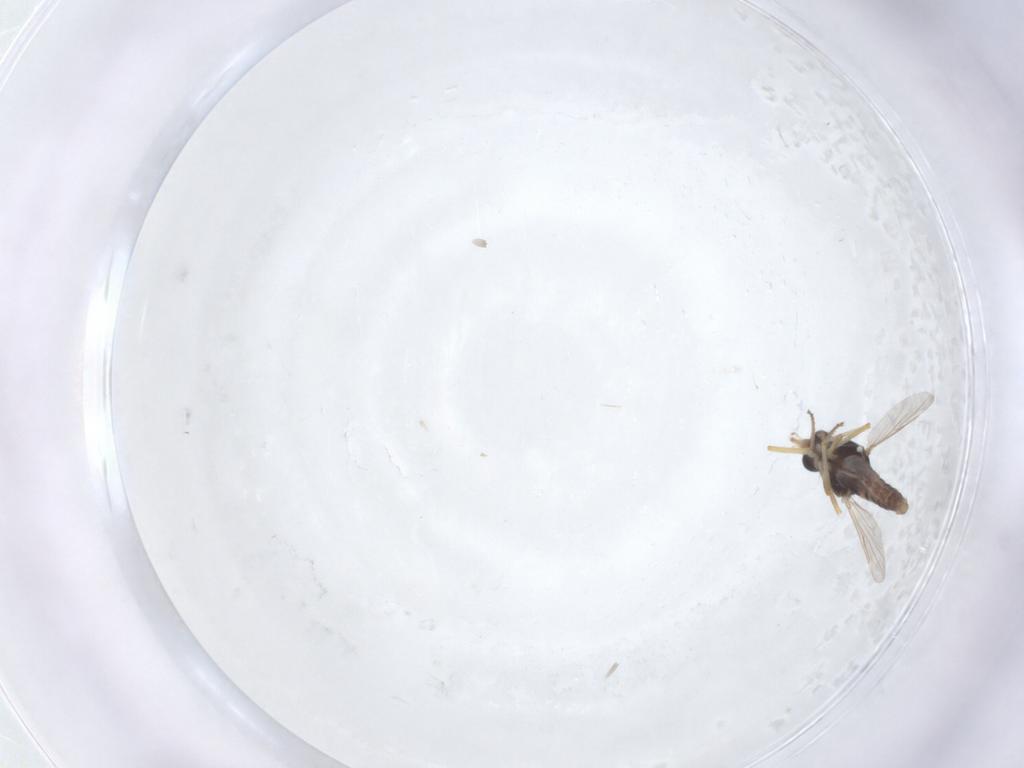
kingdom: Animalia
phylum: Arthropoda
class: Insecta
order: Diptera
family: Ceratopogonidae
